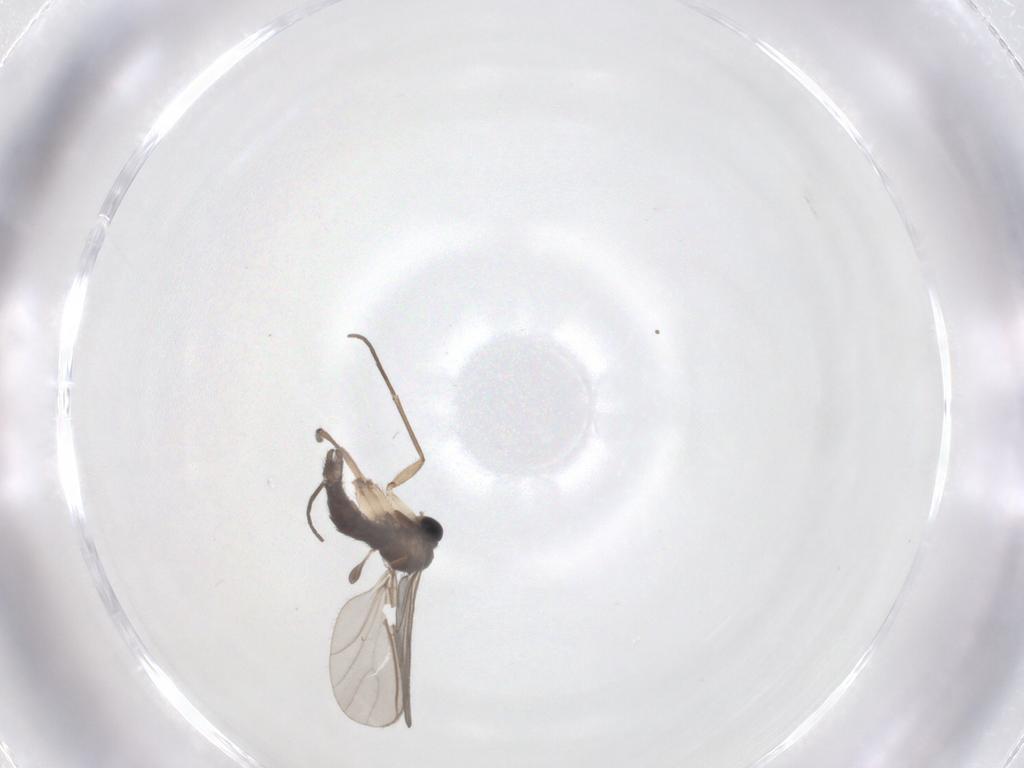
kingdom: Animalia
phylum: Arthropoda
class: Insecta
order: Diptera
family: Sciaridae
